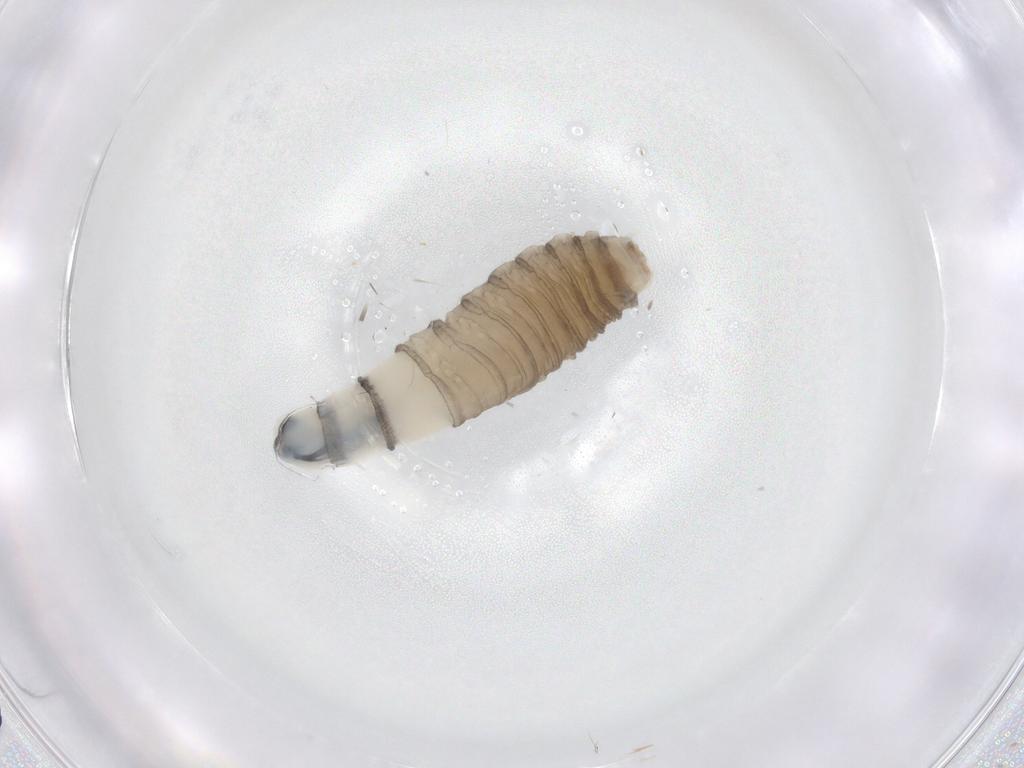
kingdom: Animalia
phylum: Arthropoda
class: Insecta
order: Diptera
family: Sarcophagidae
